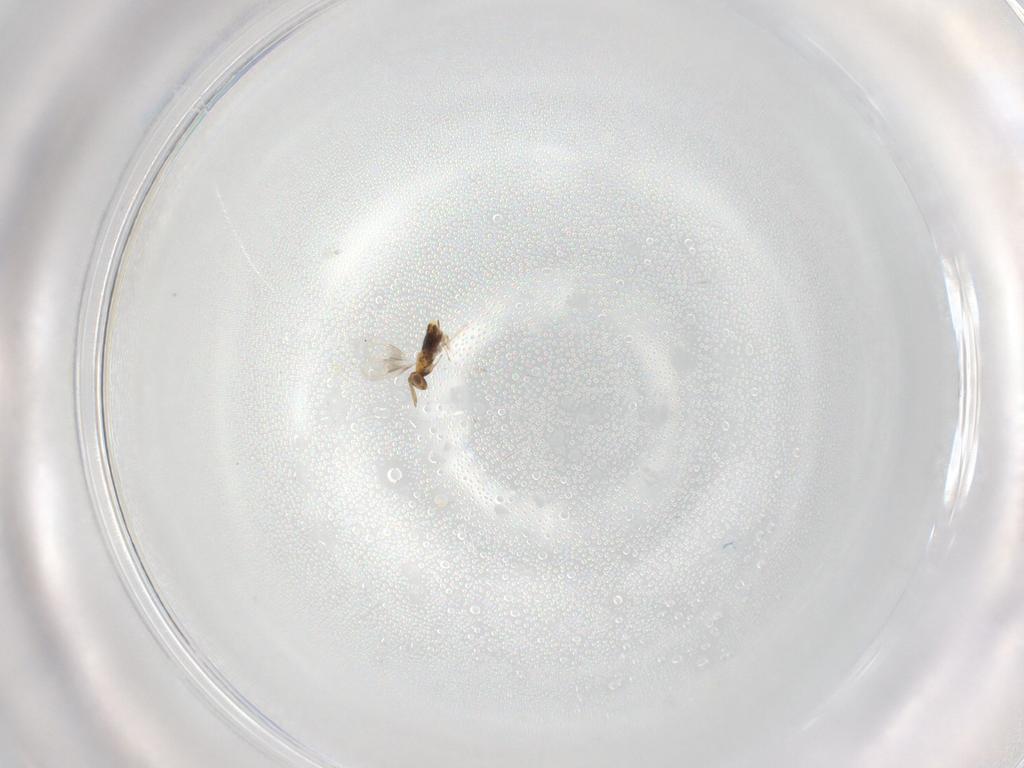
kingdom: Animalia
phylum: Arthropoda
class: Insecta
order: Hymenoptera
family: Aphelinidae
